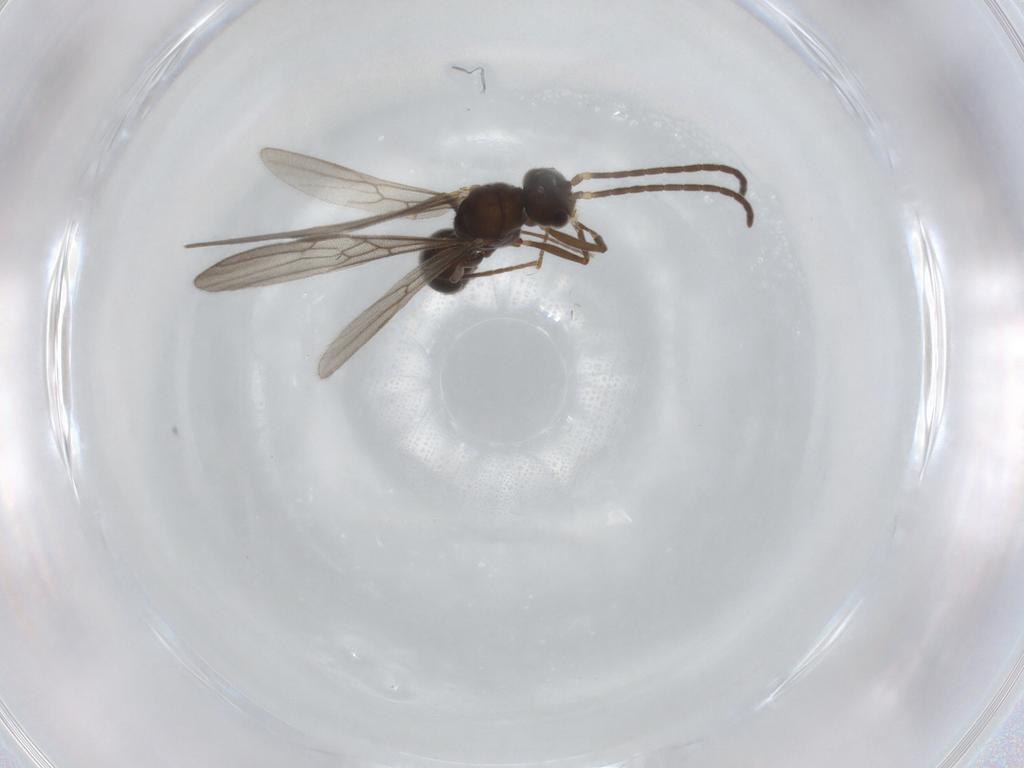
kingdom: Animalia
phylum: Arthropoda
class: Insecta
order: Hymenoptera
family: Formicidae
